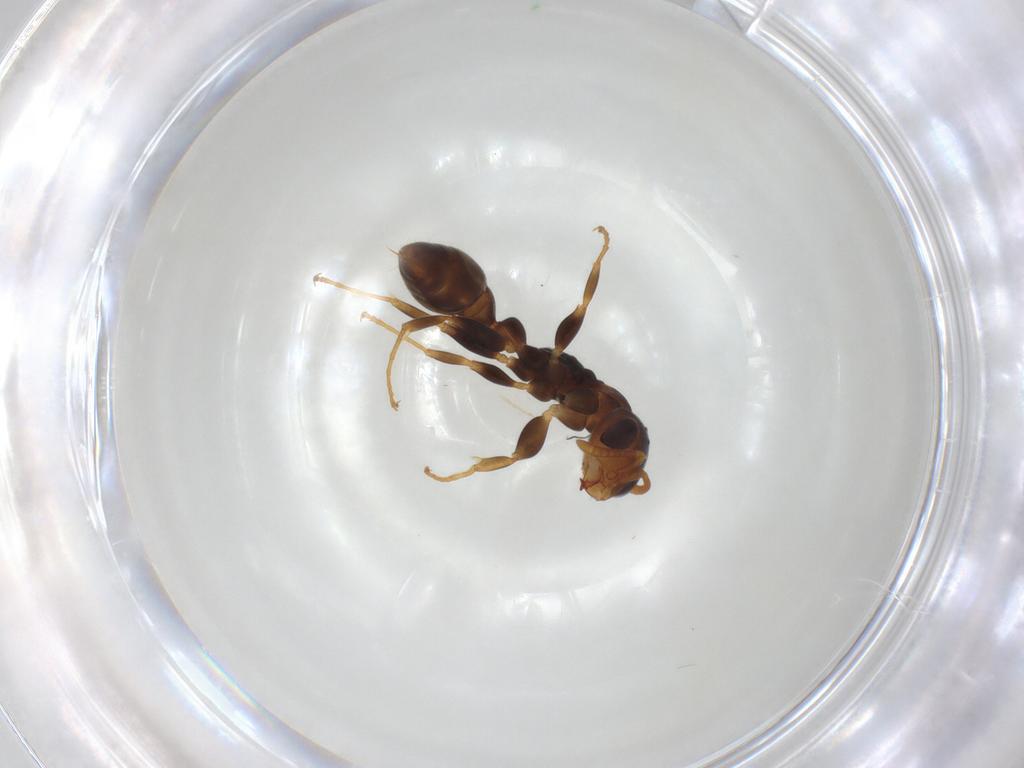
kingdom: Animalia
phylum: Arthropoda
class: Insecta
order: Hymenoptera
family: Formicidae
